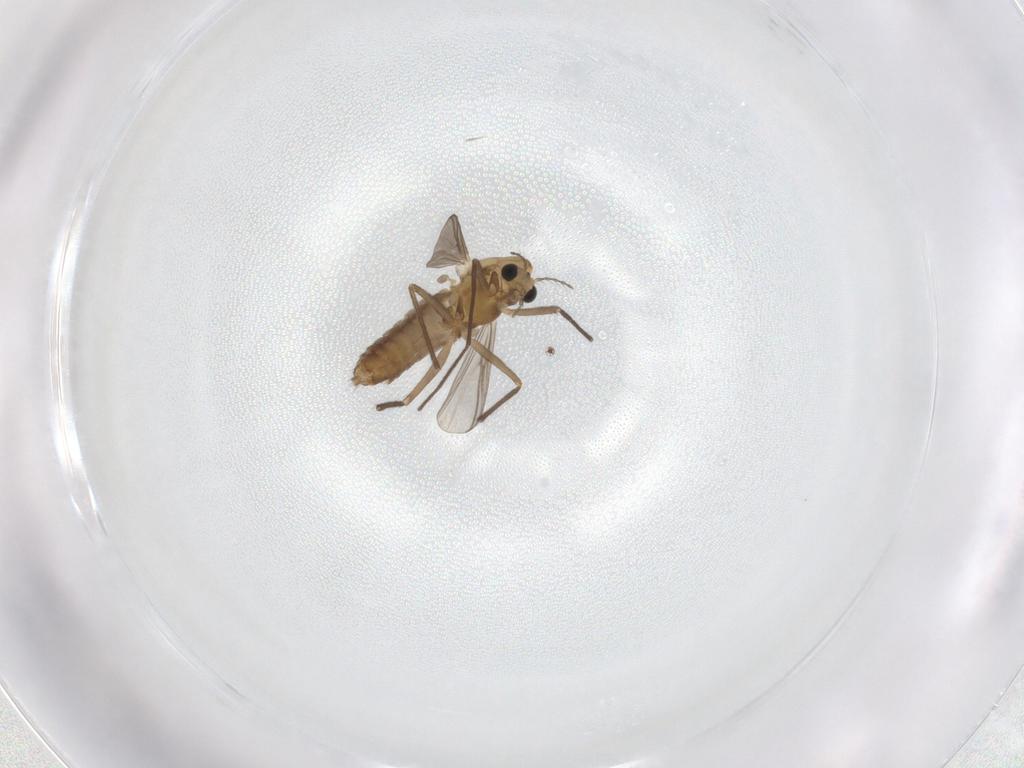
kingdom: Animalia
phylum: Arthropoda
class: Insecta
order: Diptera
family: Chironomidae
